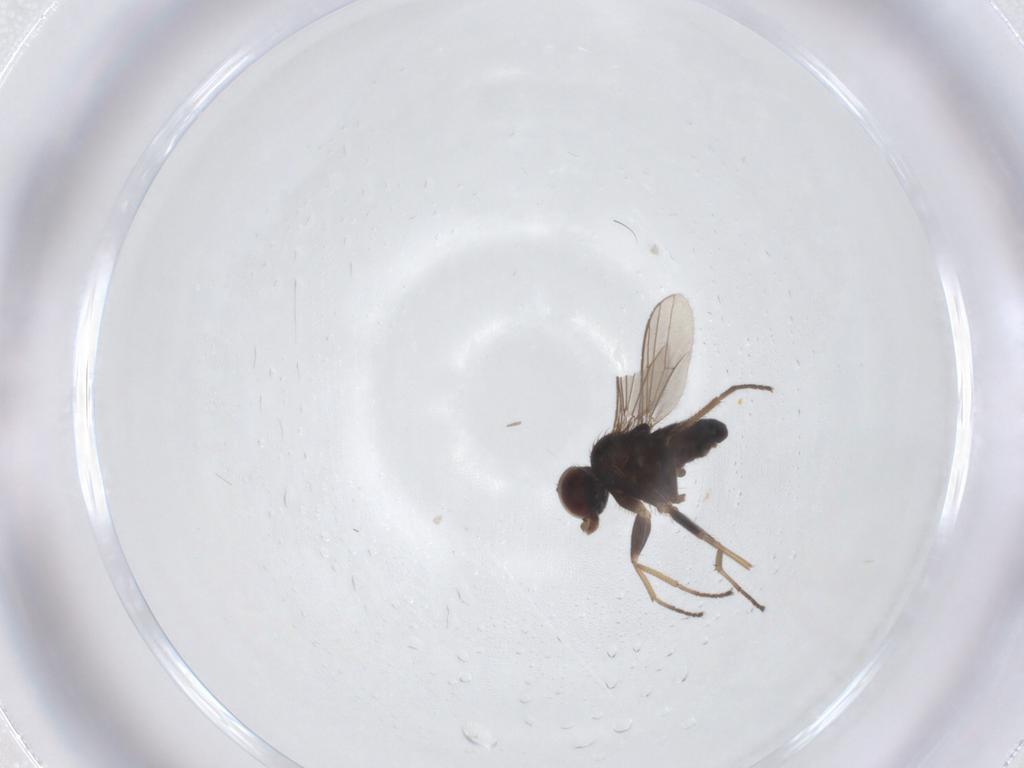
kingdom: Animalia
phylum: Arthropoda
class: Insecta
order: Diptera
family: Dolichopodidae
